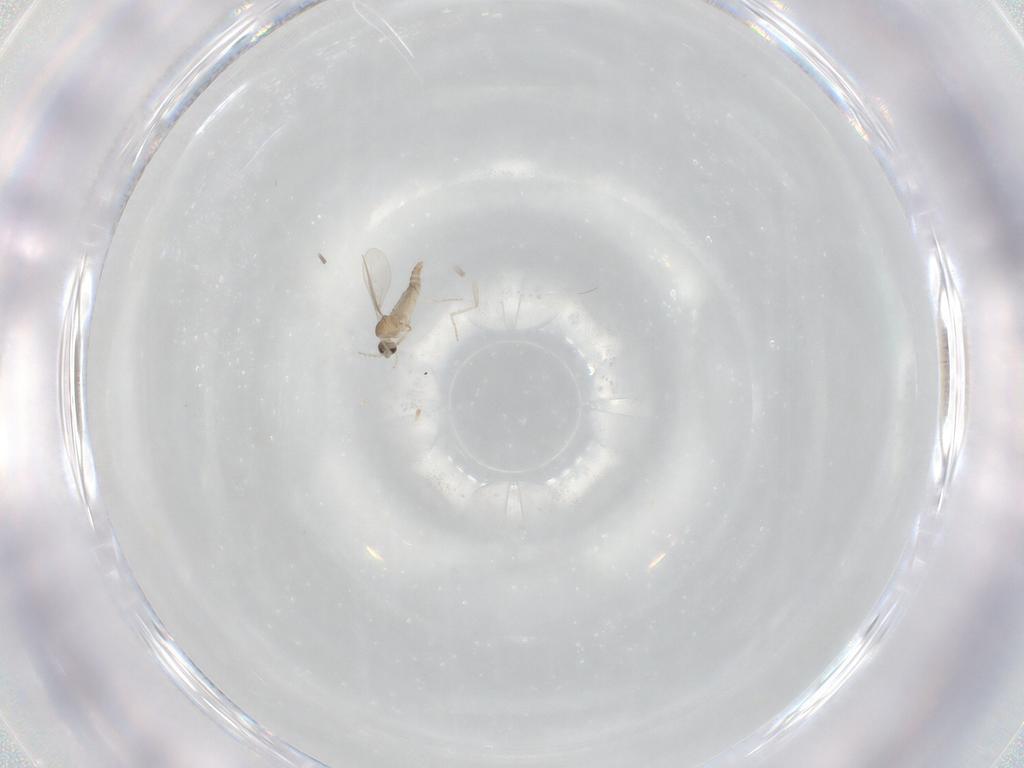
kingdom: Animalia
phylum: Arthropoda
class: Insecta
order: Diptera
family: Cecidomyiidae
